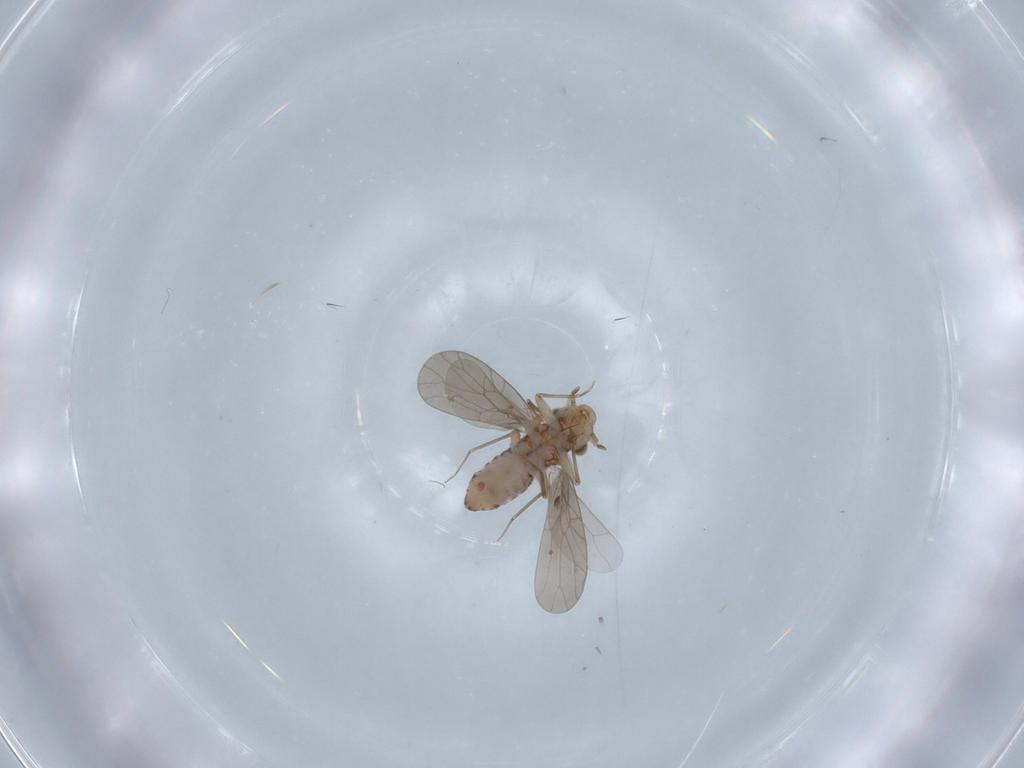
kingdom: Animalia
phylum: Arthropoda
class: Insecta
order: Psocodea
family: Lepidopsocidae
